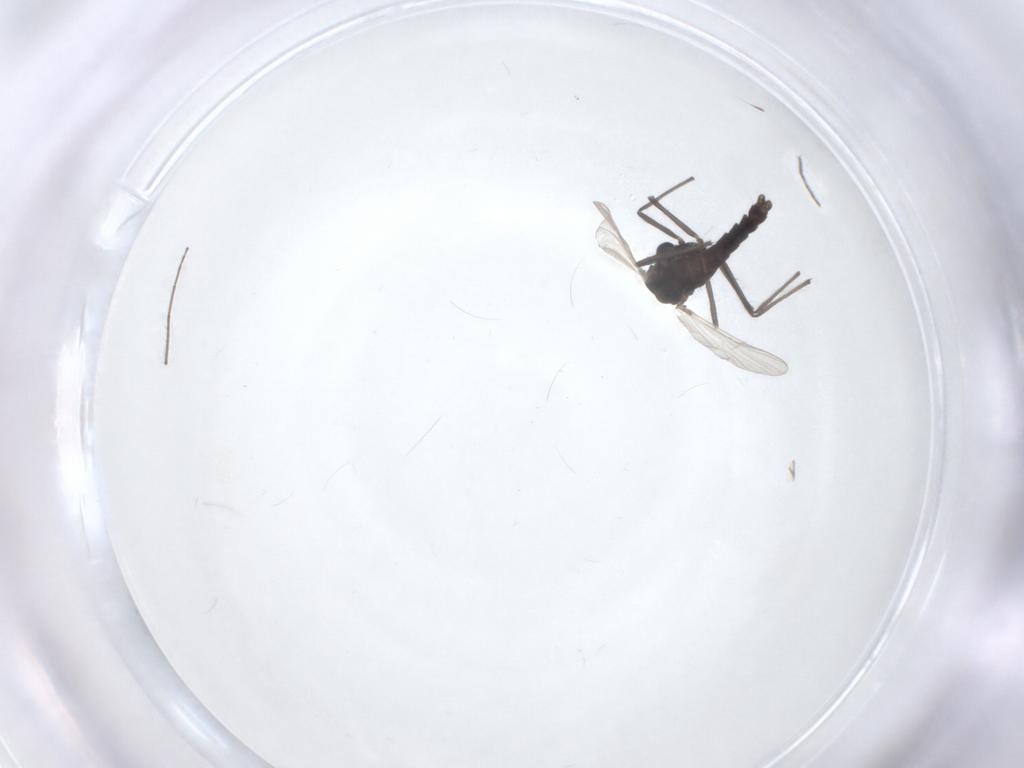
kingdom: Animalia
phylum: Arthropoda
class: Insecta
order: Diptera
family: Chironomidae
